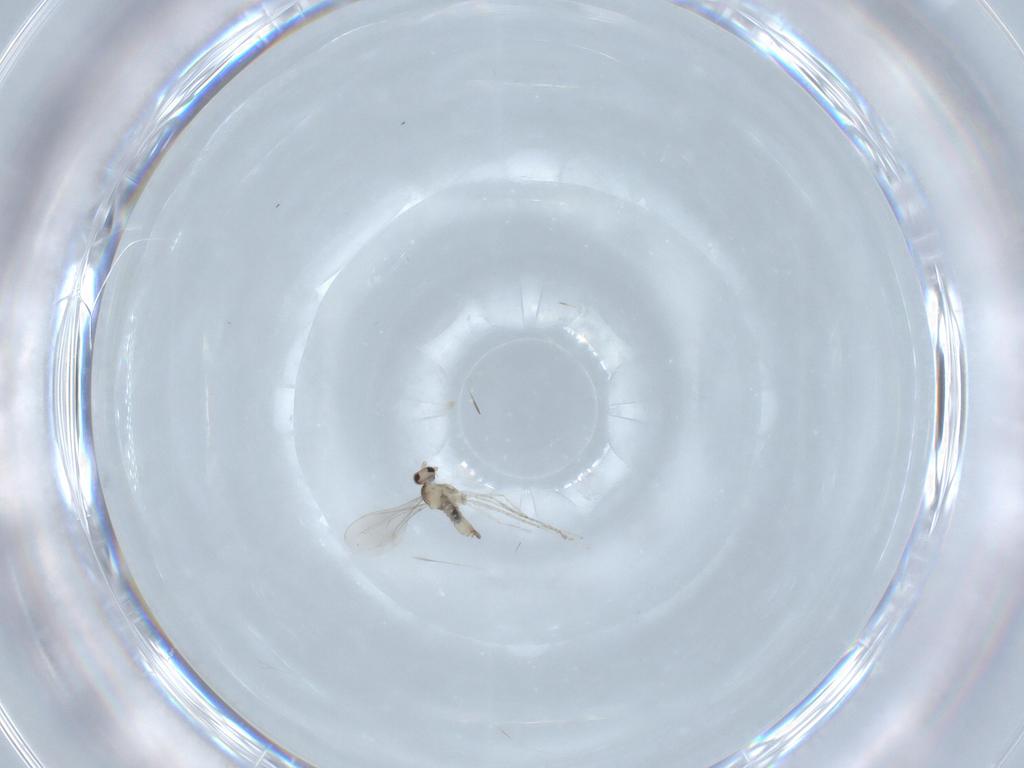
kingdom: Animalia
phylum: Arthropoda
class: Insecta
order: Diptera
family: Cecidomyiidae
